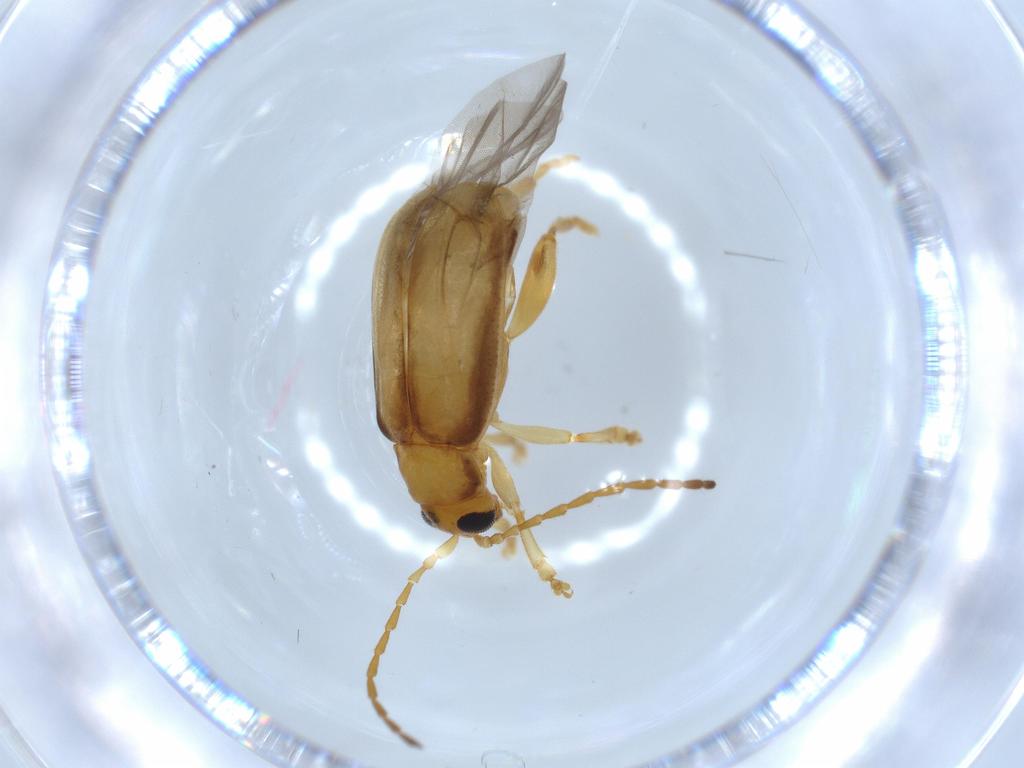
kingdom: Animalia
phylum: Arthropoda
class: Insecta
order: Coleoptera
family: Chrysomelidae
